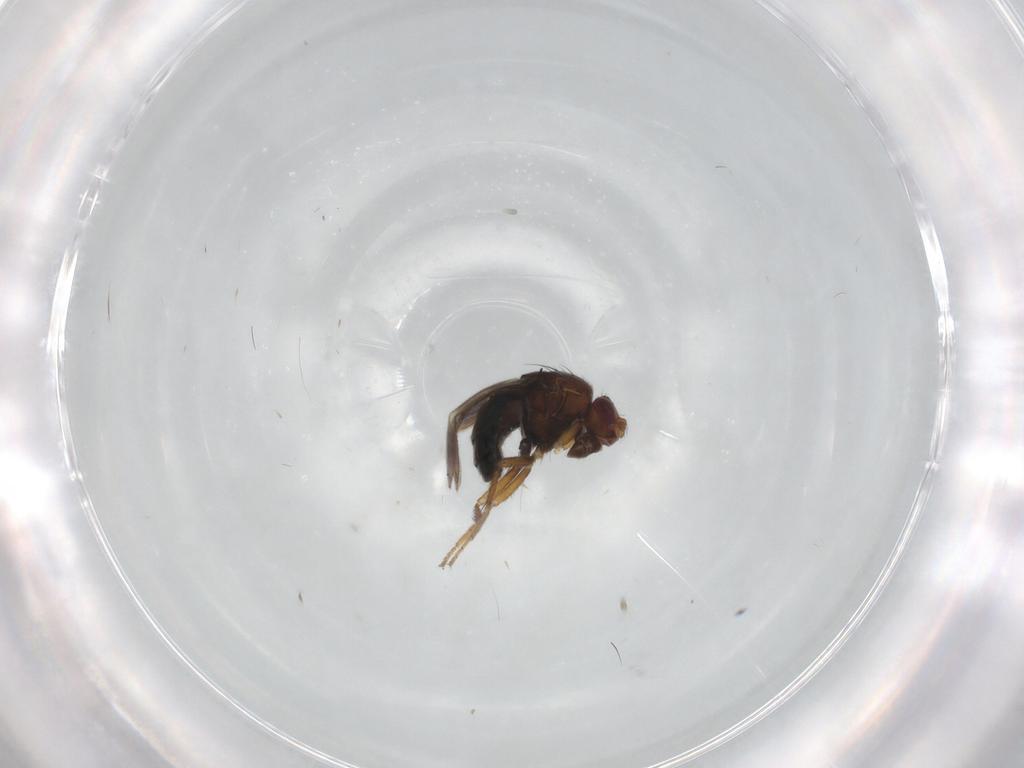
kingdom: Animalia
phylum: Arthropoda
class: Insecta
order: Diptera
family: Sphaeroceridae
